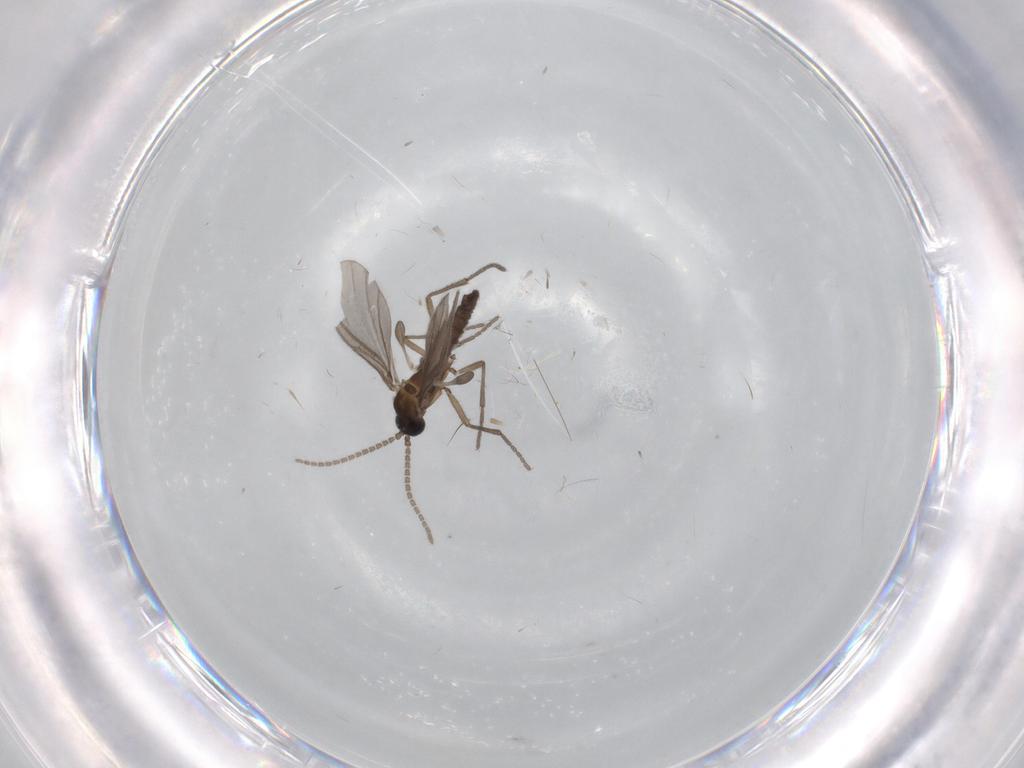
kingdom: Animalia
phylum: Arthropoda
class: Insecta
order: Diptera
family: Sciaridae
